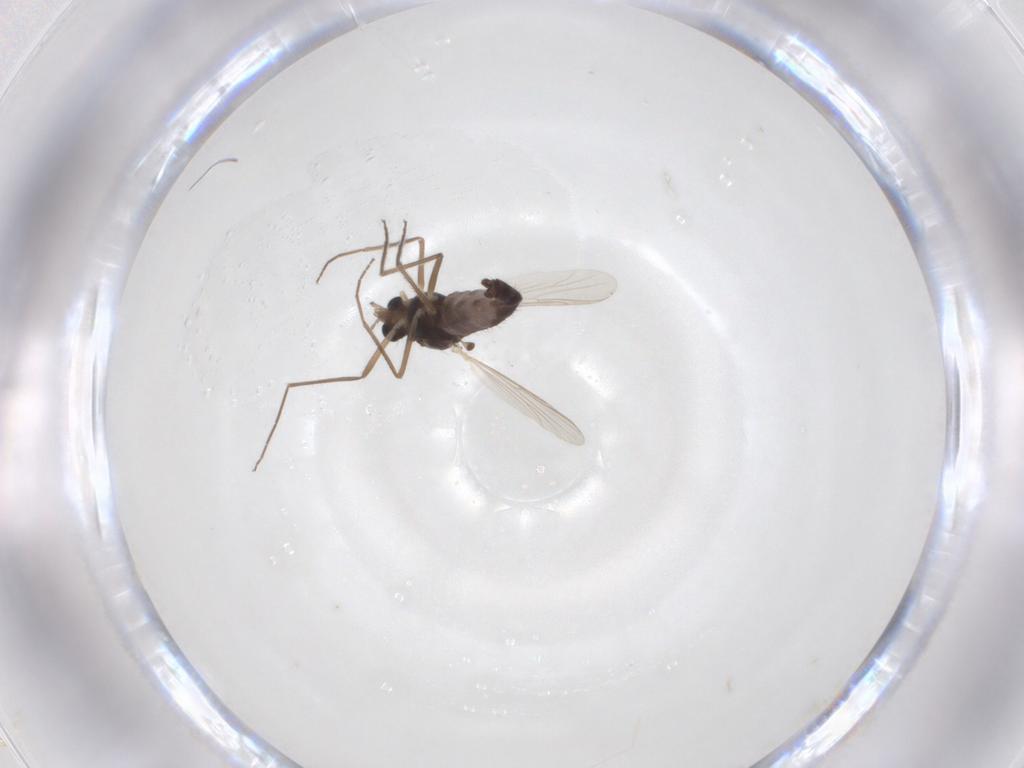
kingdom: Animalia
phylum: Arthropoda
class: Insecta
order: Diptera
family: Chironomidae
